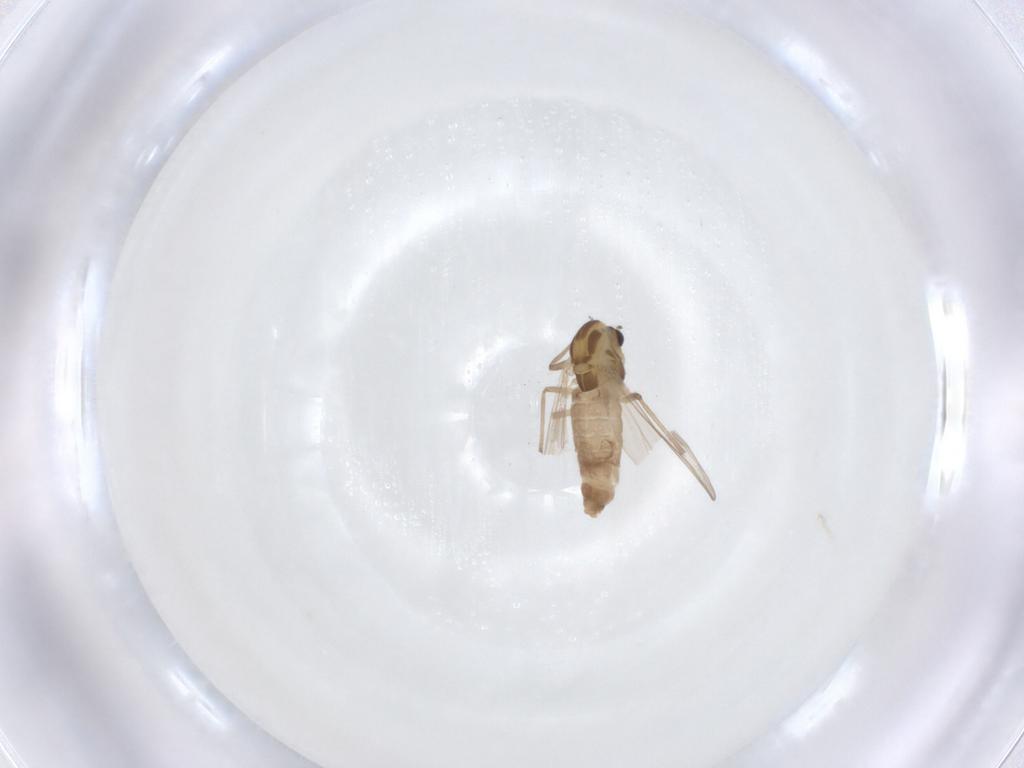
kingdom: Animalia
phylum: Arthropoda
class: Insecta
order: Diptera
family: Chironomidae
